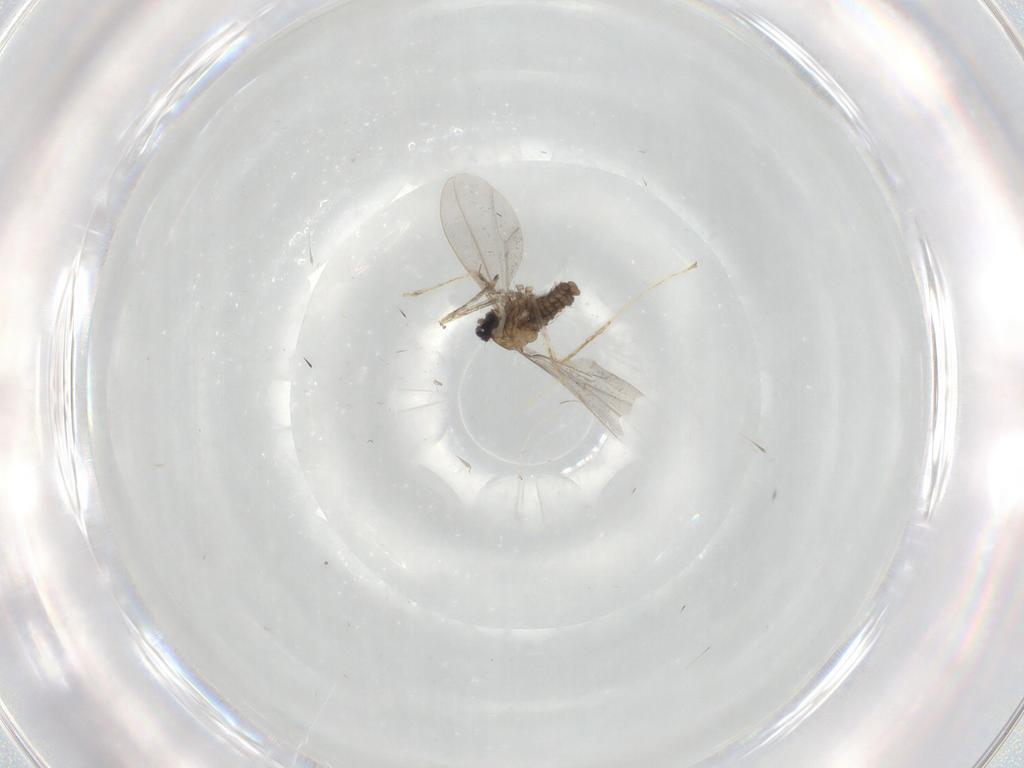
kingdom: Animalia
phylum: Arthropoda
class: Insecta
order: Diptera
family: Cecidomyiidae
